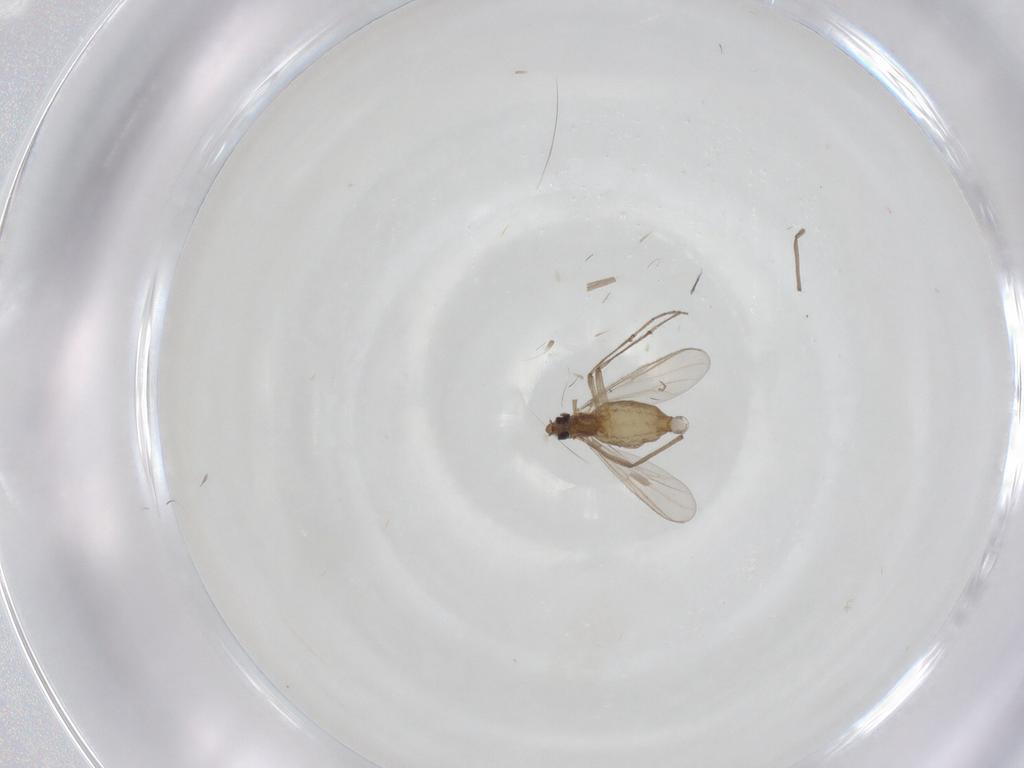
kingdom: Animalia
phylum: Arthropoda
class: Insecta
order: Diptera
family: Chironomidae
